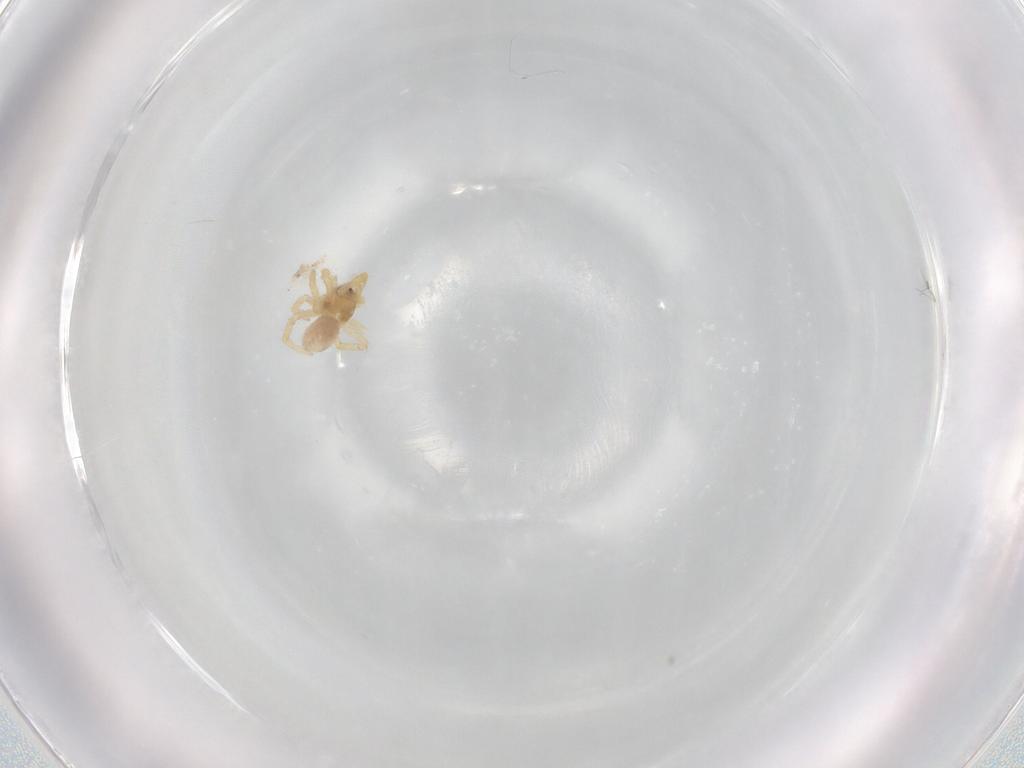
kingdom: Animalia
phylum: Arthropoda
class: Arachnida
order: Araneae
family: Theridiidae
